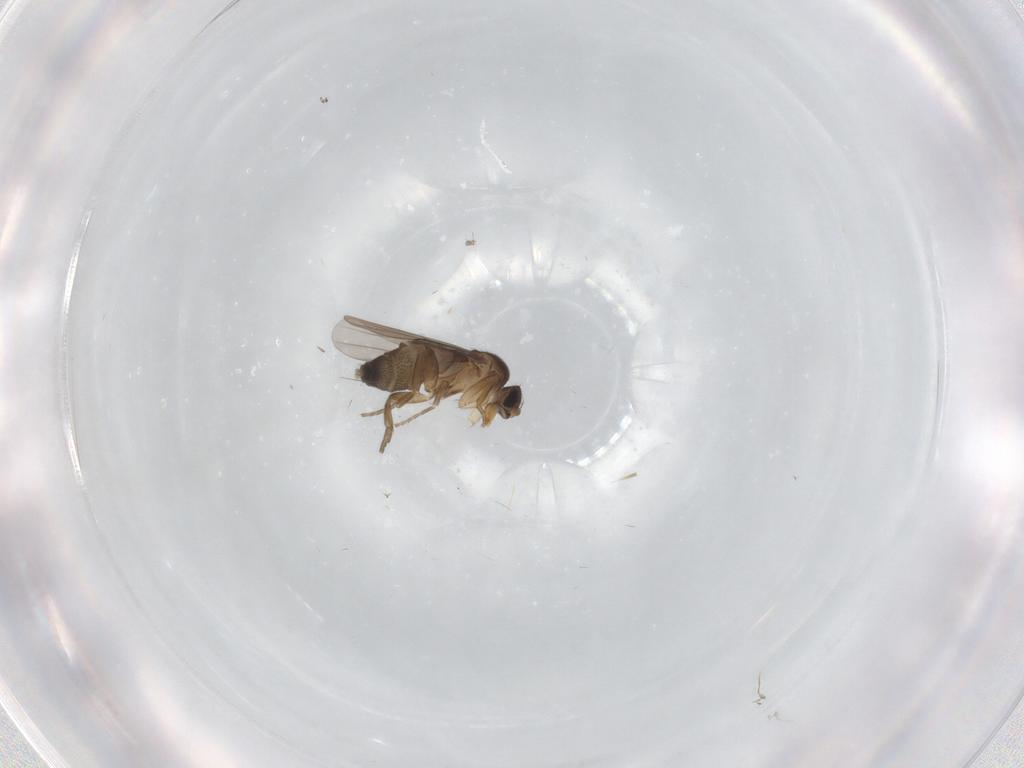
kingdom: Animalia
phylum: Arthropoda
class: Insecta
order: Diptera
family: Phoridae
